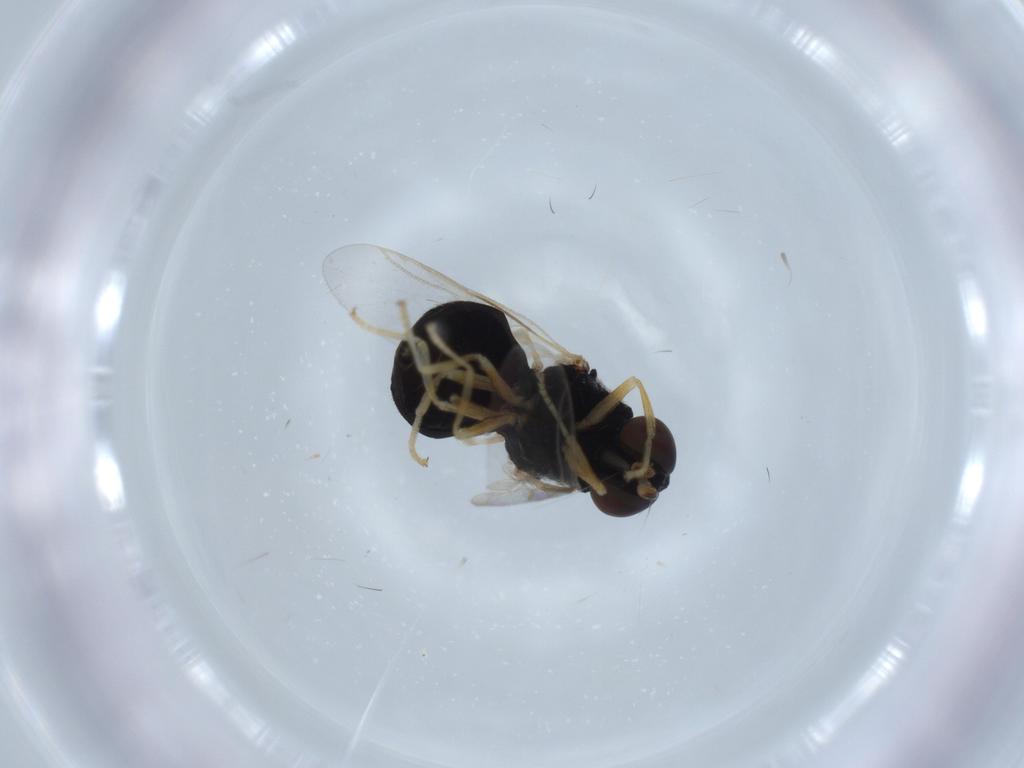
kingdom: Animalia
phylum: Arthropoda
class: Insecta
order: Diptera
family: Stratiomyidae
